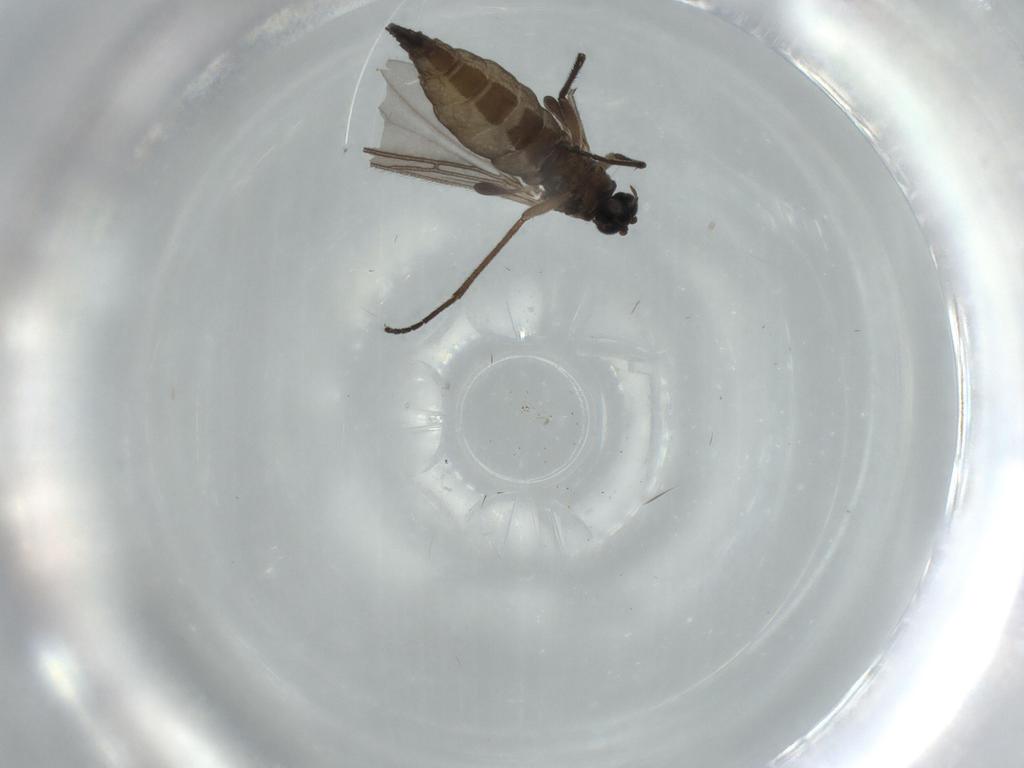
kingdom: Animalia
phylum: Arthropoda
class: Insecta
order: Diptera
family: Sciaridae
